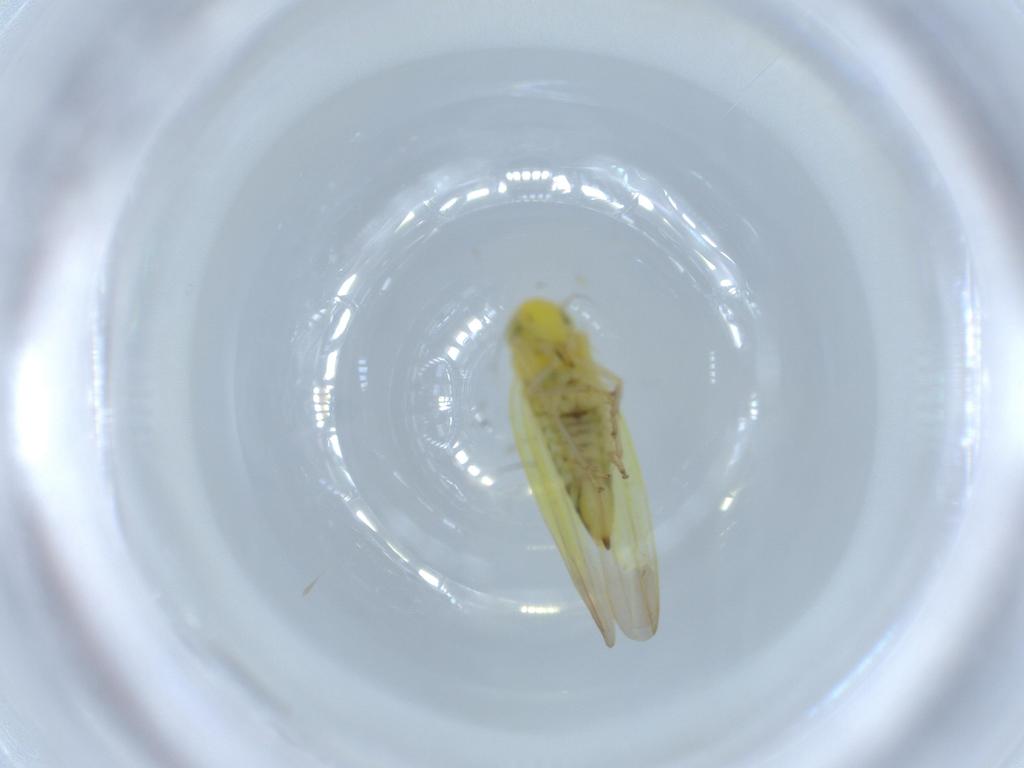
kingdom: Animalia
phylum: Arthropoda
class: Insecta
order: Hemiptera
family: Cicadellidae
